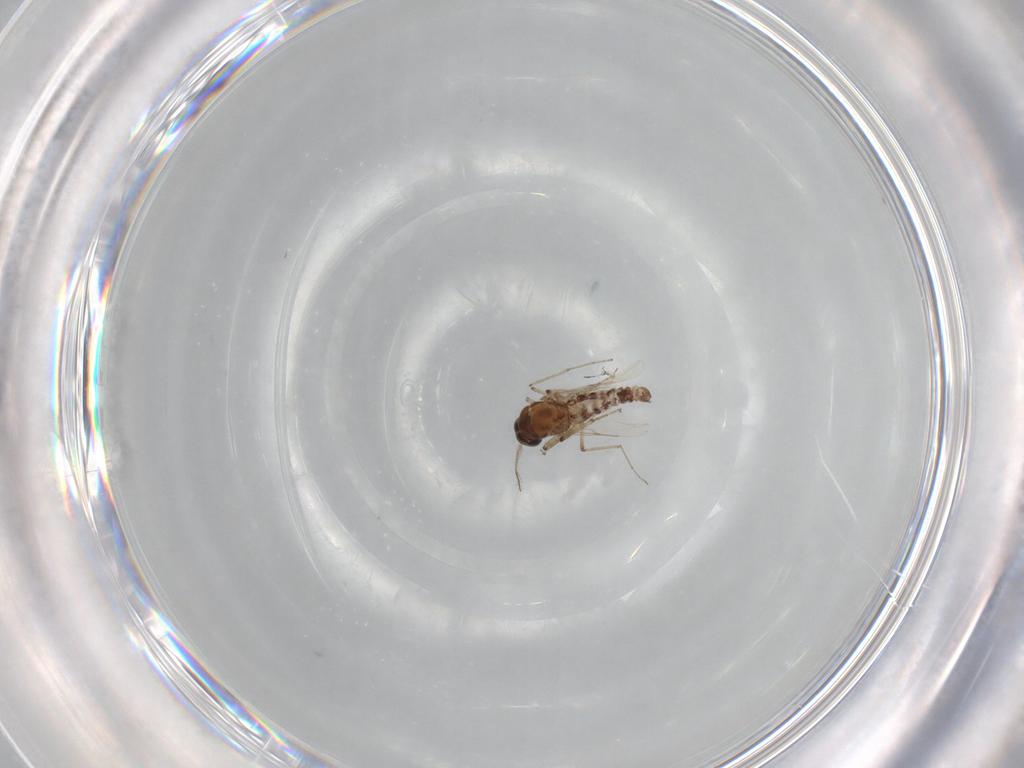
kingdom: Animalia
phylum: Arthropoda
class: Insecta
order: Diptera
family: Ceratopogonidae
